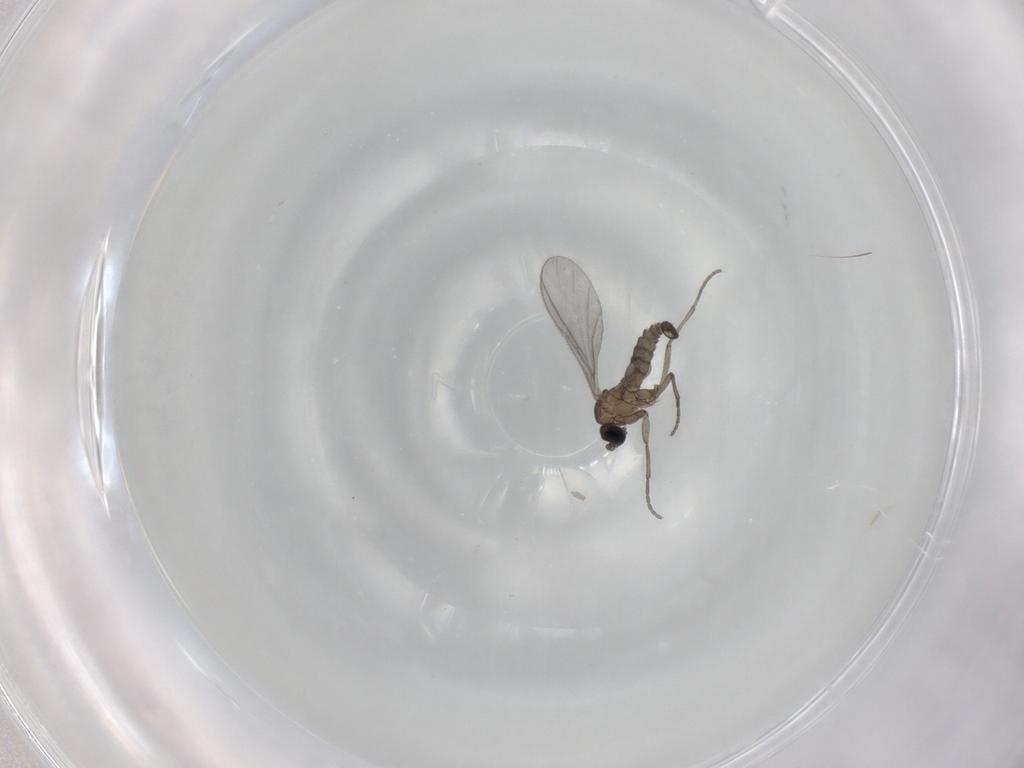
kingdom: Animalia
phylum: Arthropoda
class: Insecta
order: Diptera
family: Sciaridae
